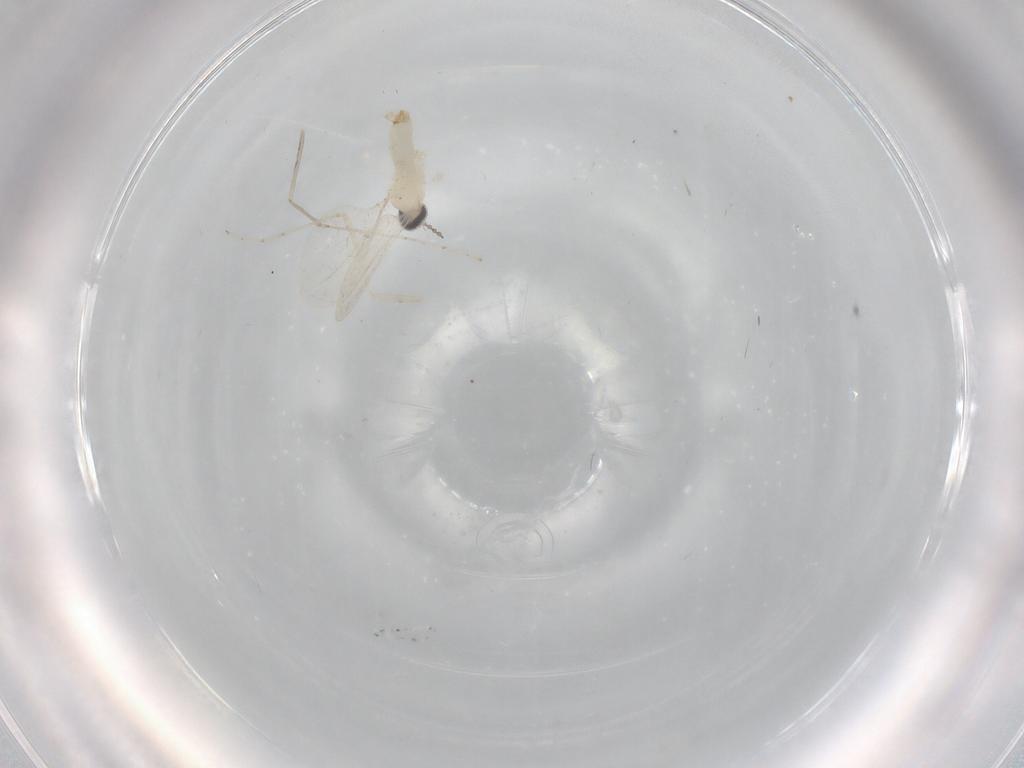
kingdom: Animalia
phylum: Arthropoda
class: Insecta
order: Diptera
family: Cecidomyiidae
